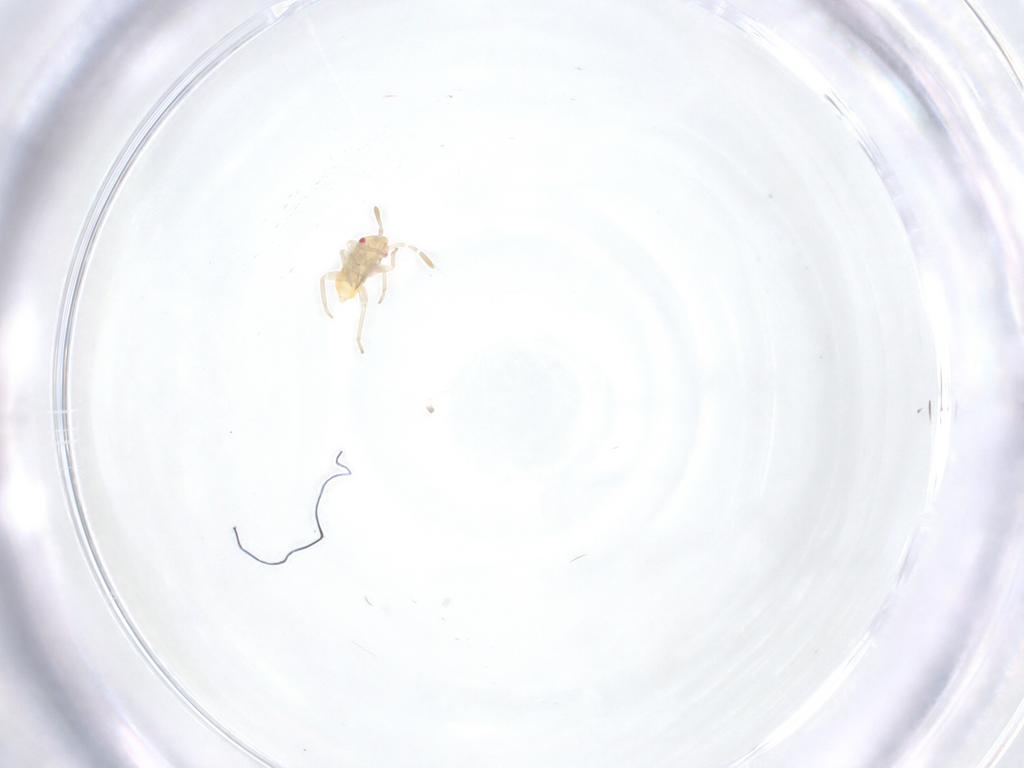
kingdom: Animalia
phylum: Arthropoda
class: Insecta
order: Hemiptera
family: Miridae
